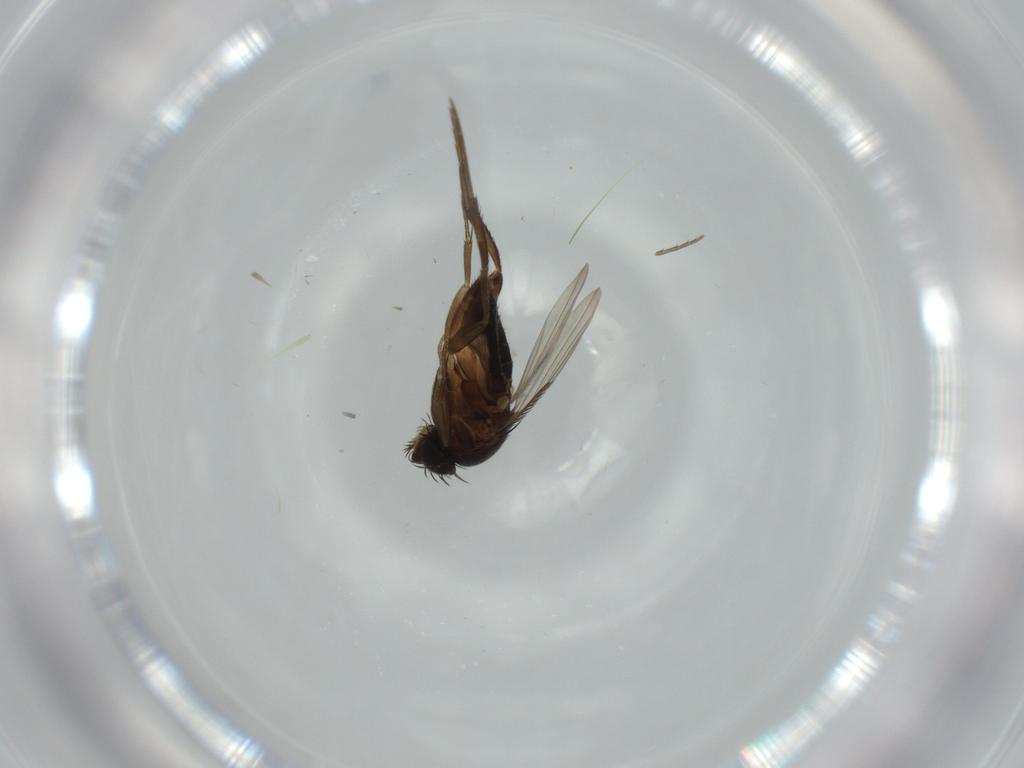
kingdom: Animalia
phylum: Arthropoda
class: Insecta
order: Diptera
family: Phoridae
